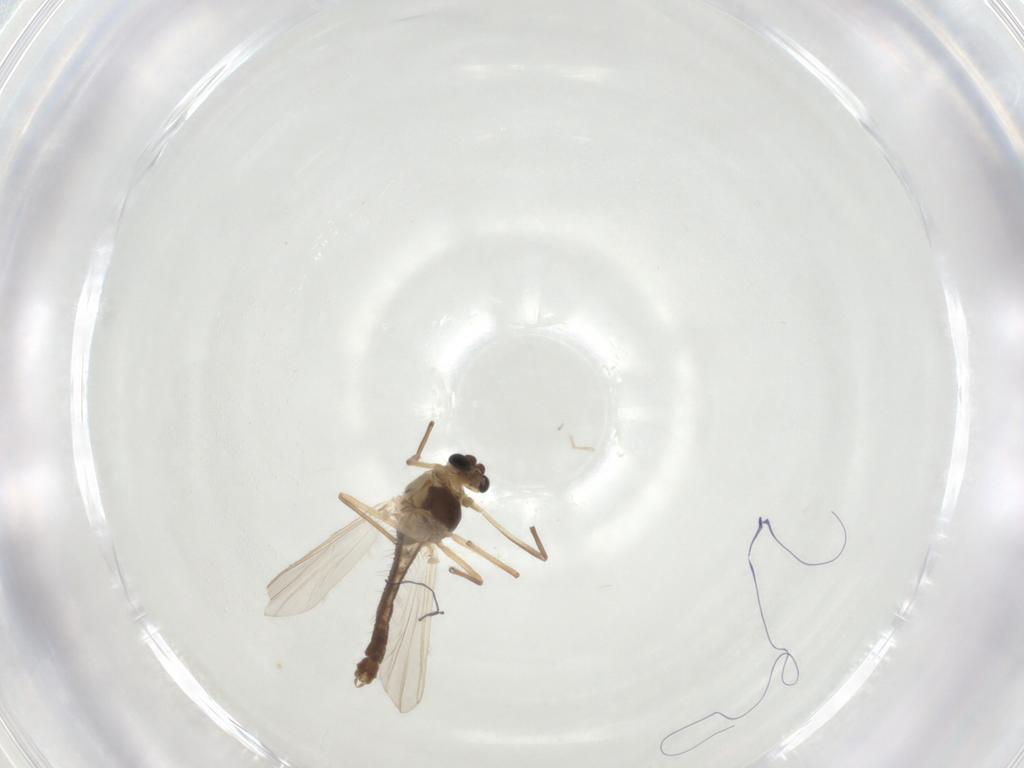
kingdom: Animalia
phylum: Arthropoda
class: Insecta
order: Diptera
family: Chironomidae
